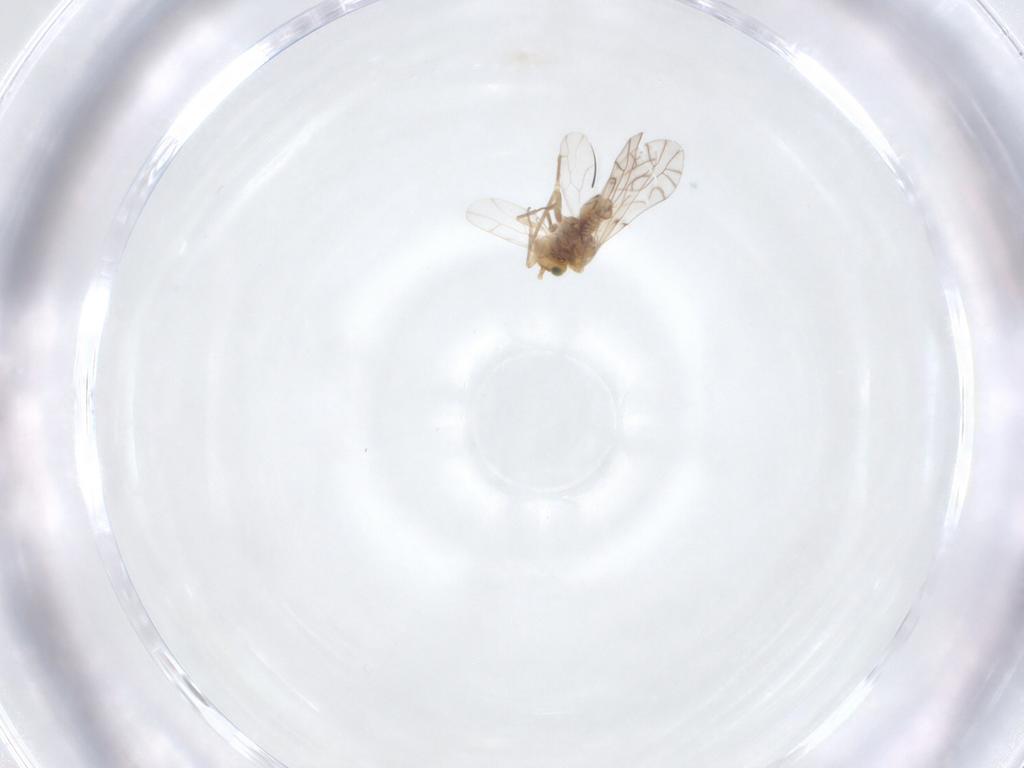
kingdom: Animalia
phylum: Arthropoda
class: Insecta
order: Psocodea
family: Lachesillidae
